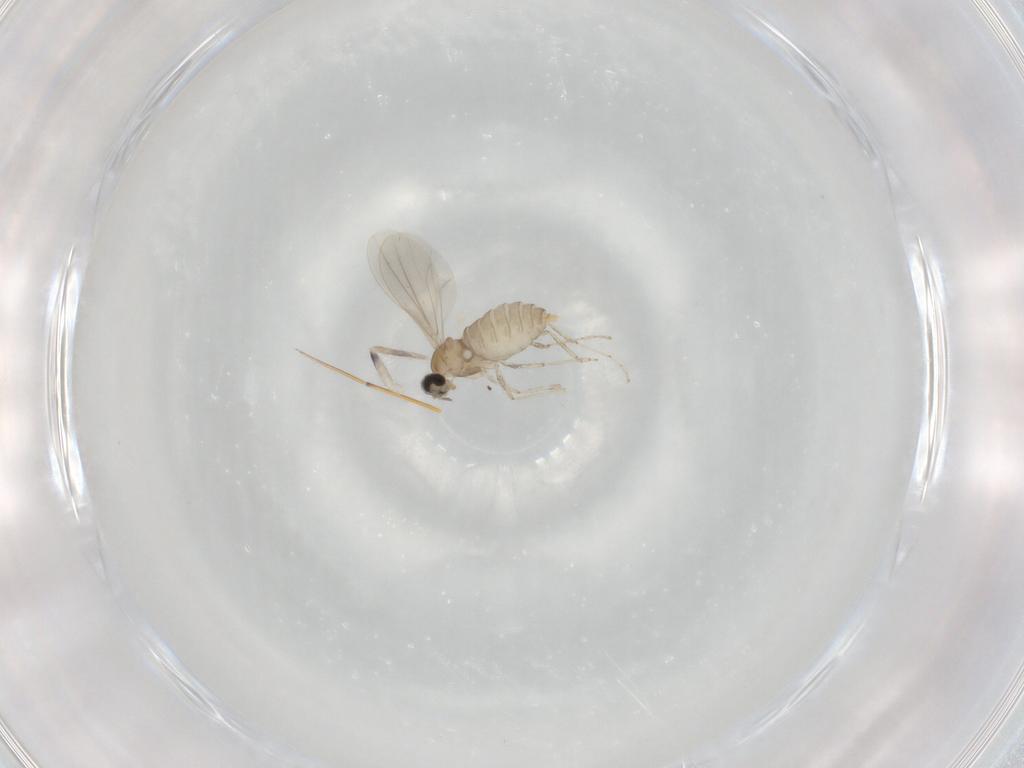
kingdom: Animalia
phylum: Arthropoda
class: Insecta
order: Diptera
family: Cecidomyiidae
